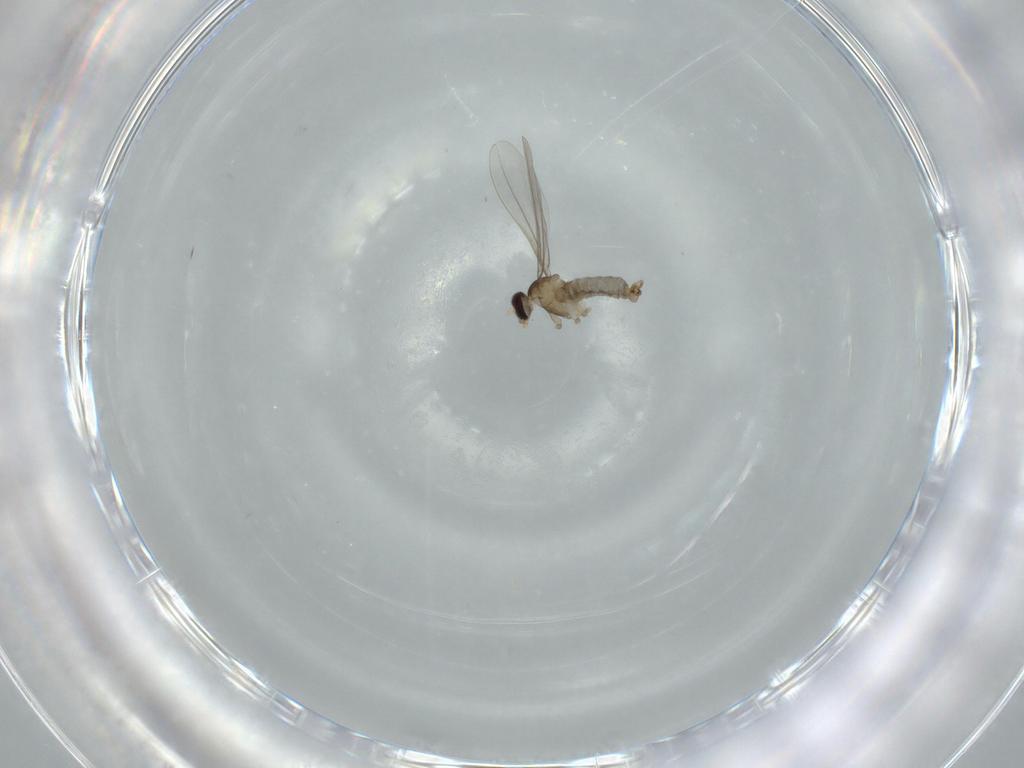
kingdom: Animalia
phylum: Arthropoda
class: Insecta
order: Diptera
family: Cecidomyiidae
